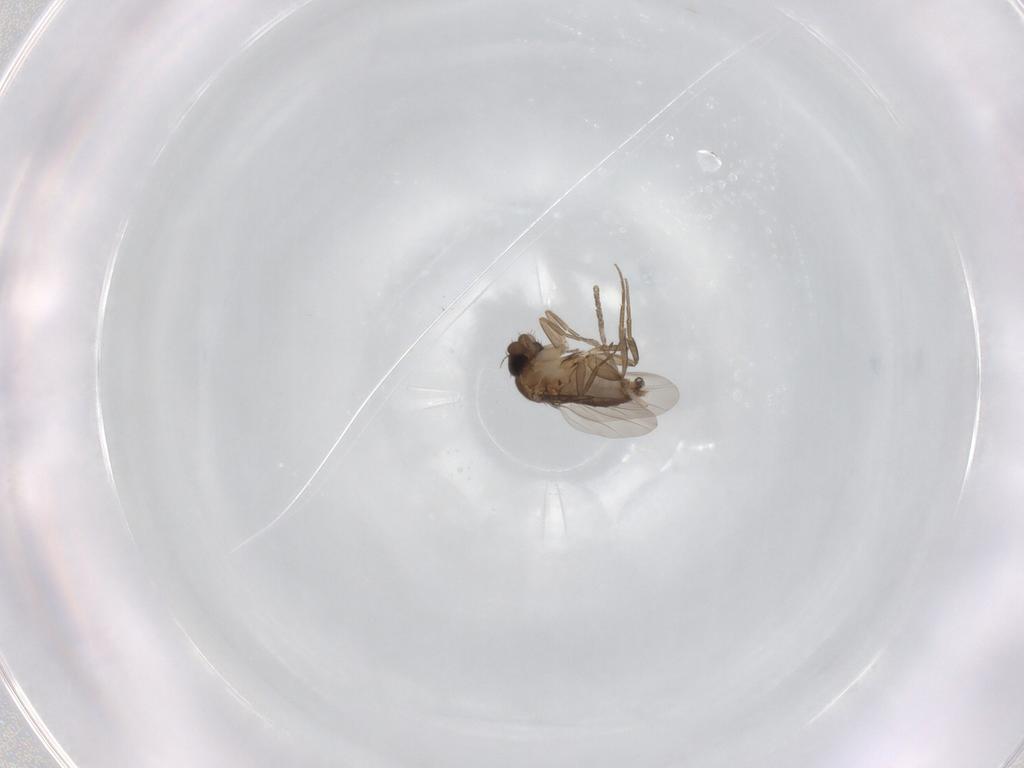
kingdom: Animalia
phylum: Arthropoda
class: Insecta
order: Diptera
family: Phoridae
